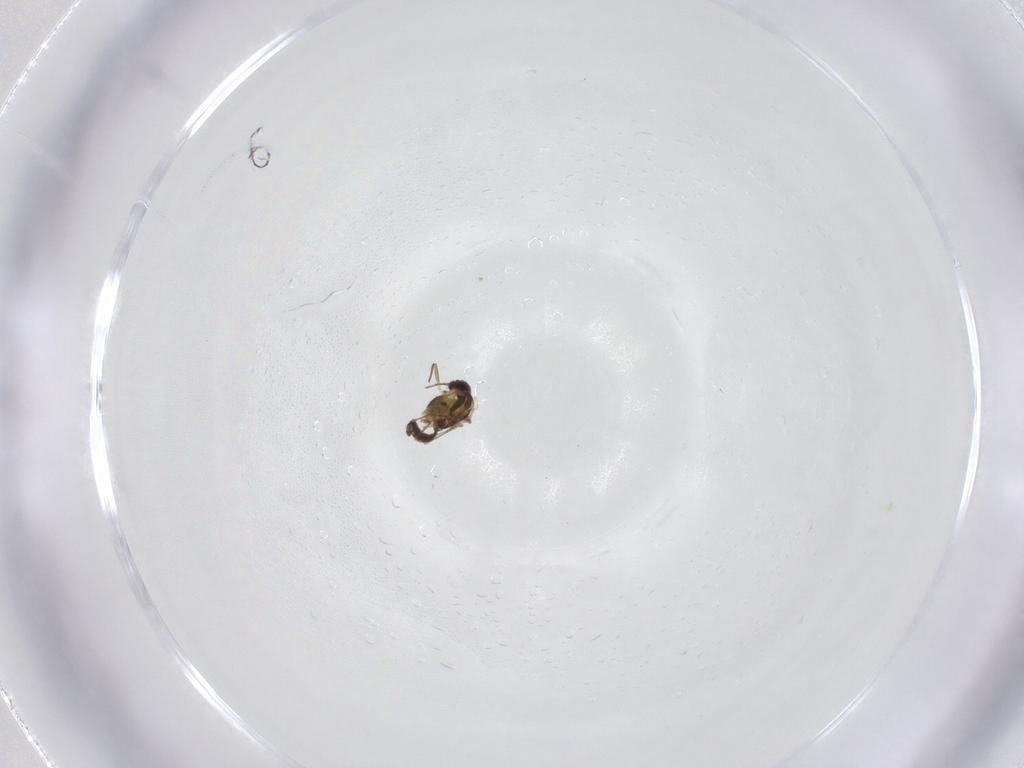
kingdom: Animalia
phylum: Arthropoda
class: Insecta
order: Diptera
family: Chironomidae
